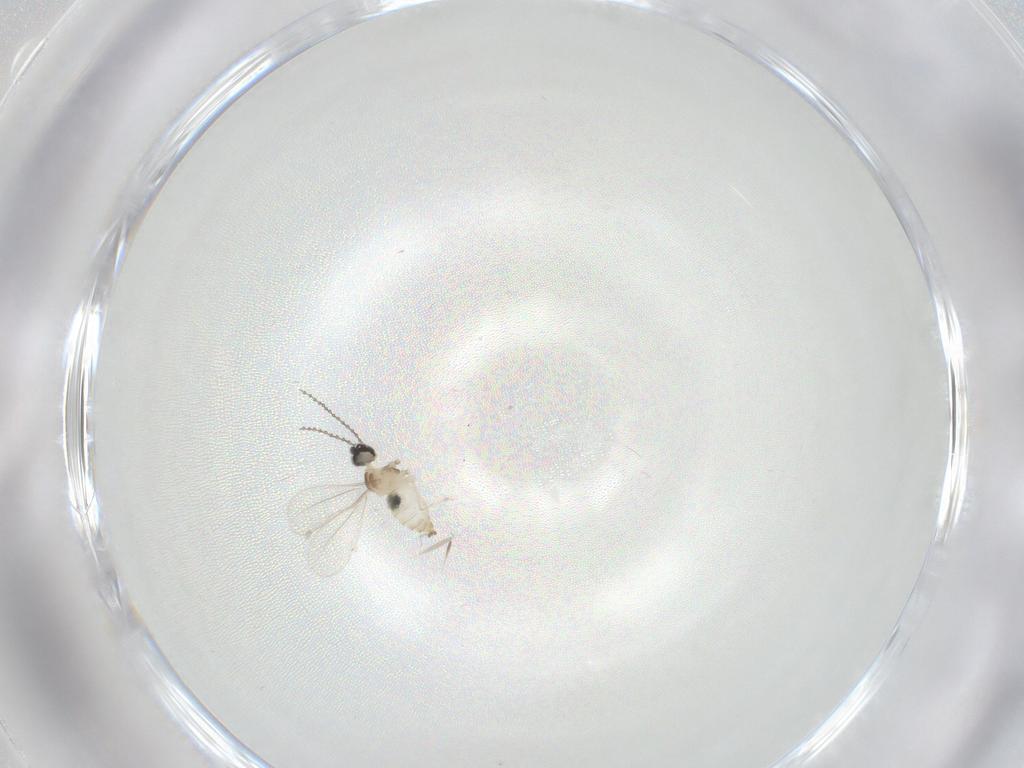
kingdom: Animalia
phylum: Arthropoda
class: Insecta
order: Diptera
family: Cecidomyiidae
